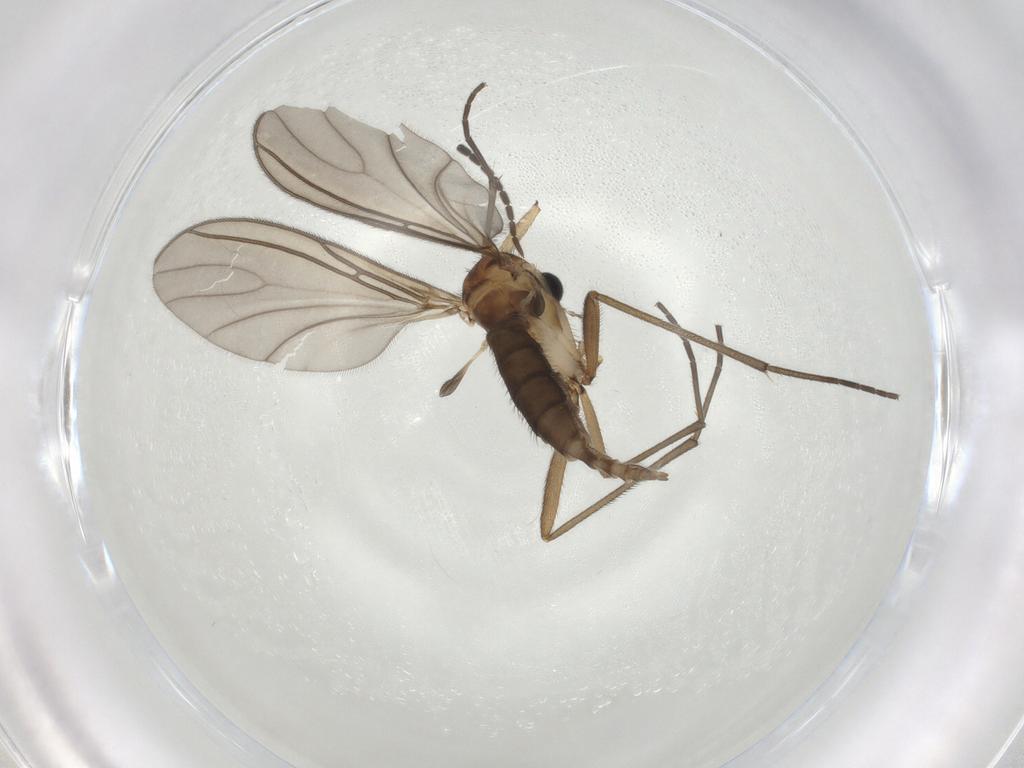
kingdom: Animalia
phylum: Arthropoda
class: Insecta
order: Diptera
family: Sciaridae
